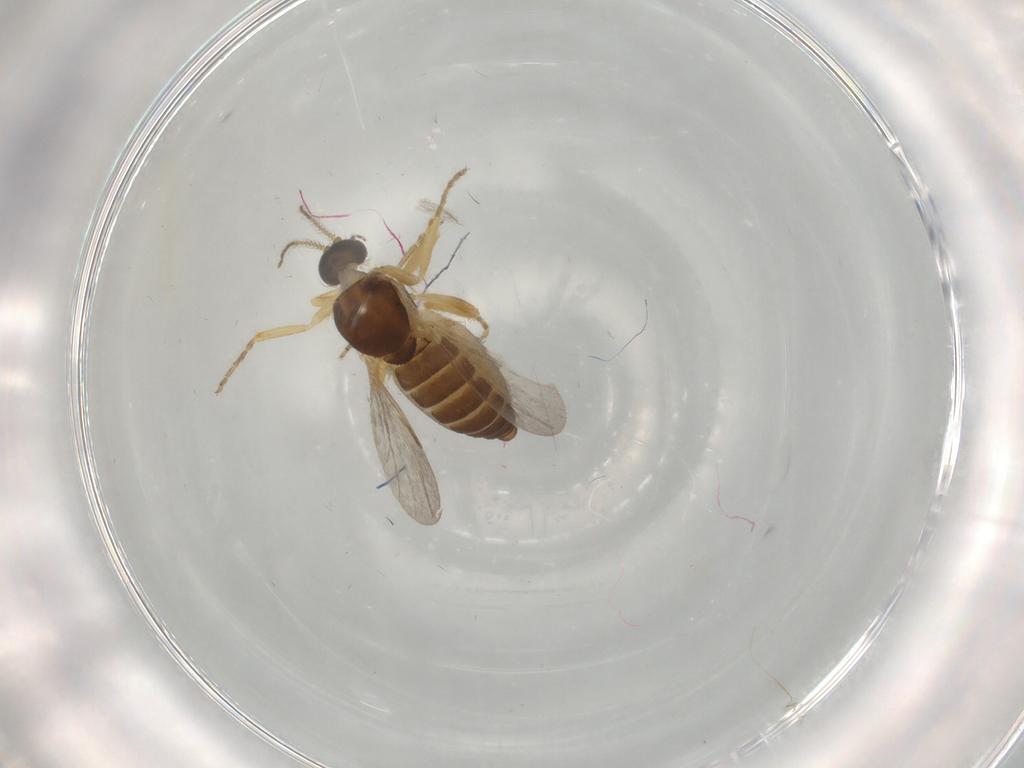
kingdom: Animalia
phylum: Arthropoda
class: Insecta
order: Diptera
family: Ceratopogonidae
